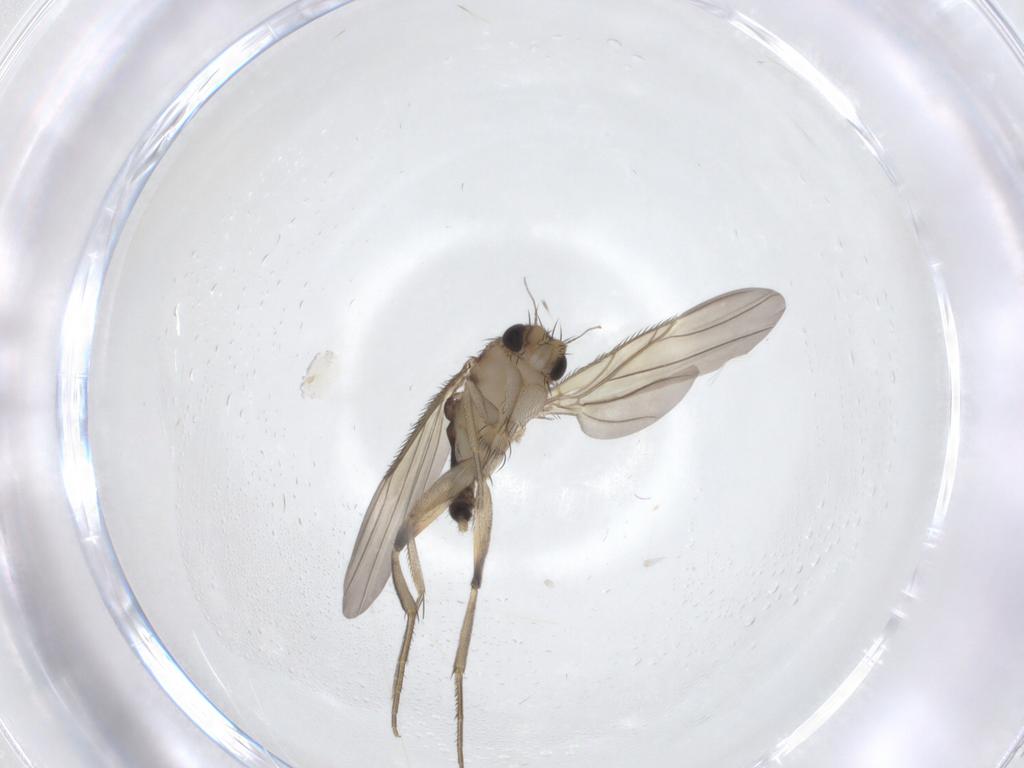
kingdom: Animalia
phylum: Arthropoda
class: Insecta
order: Diptera
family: Phoridae
